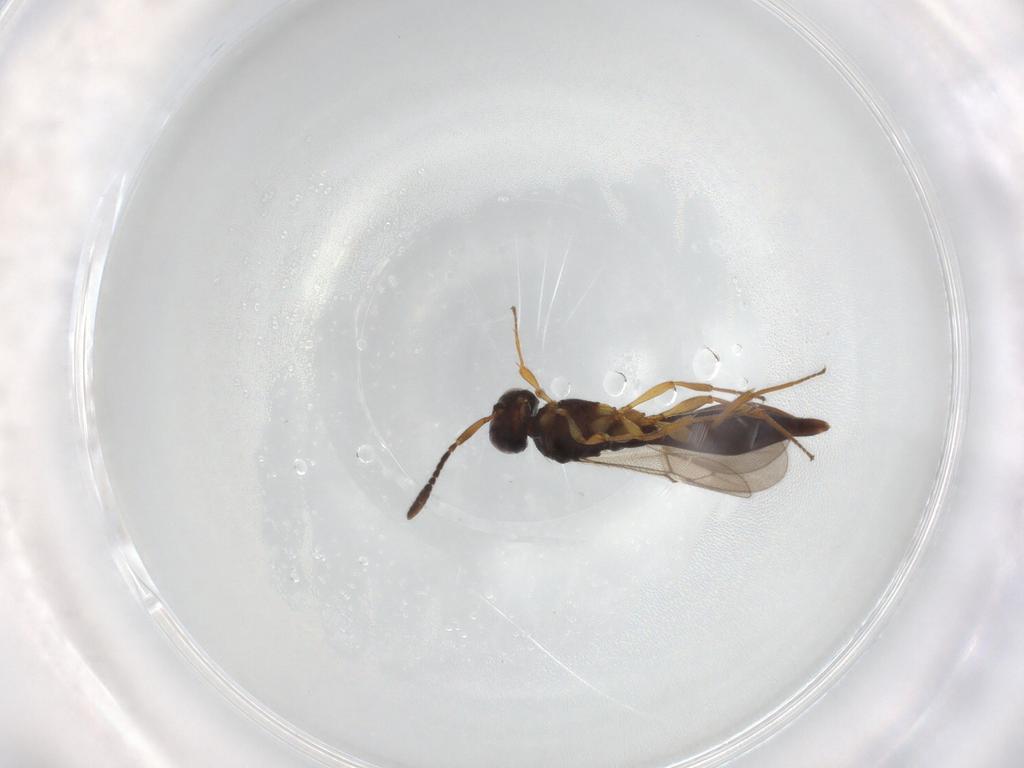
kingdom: Animalia
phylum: Arthropoda
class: Insecta
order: Hymenoptera
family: Scelionidae
